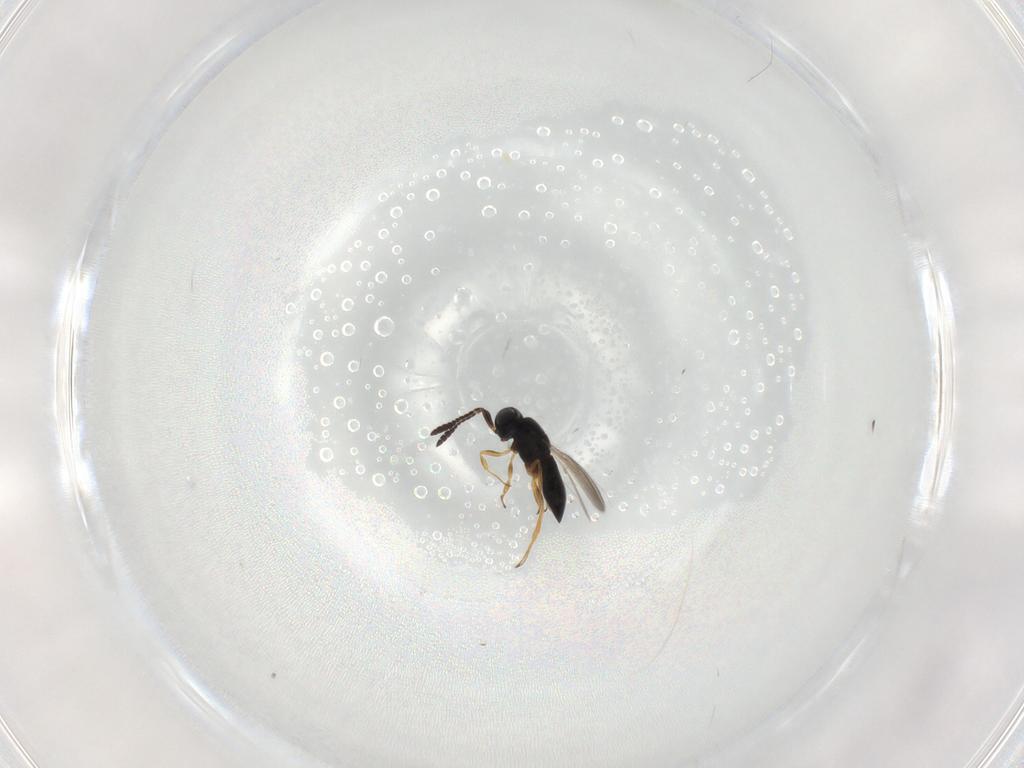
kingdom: Animalia
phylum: Arthropoda
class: Insecta
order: Hymenoptera
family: Scelionidae
